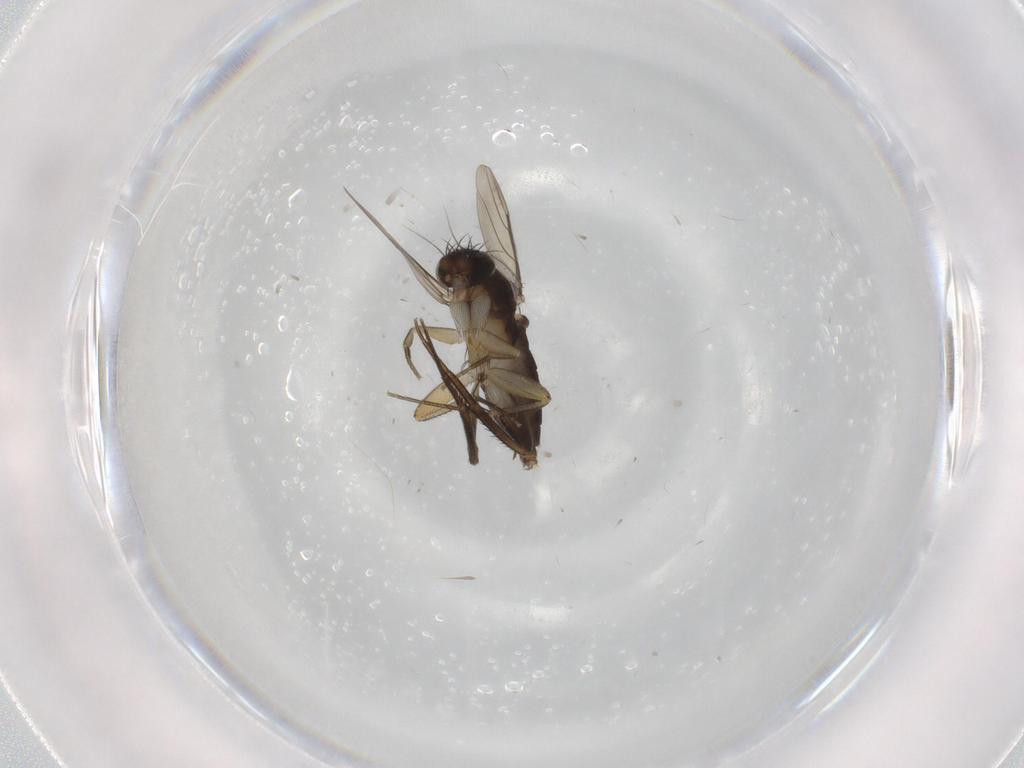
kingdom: Animalia
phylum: Arthropoda
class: Insecta
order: Diptera
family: Phoridae
